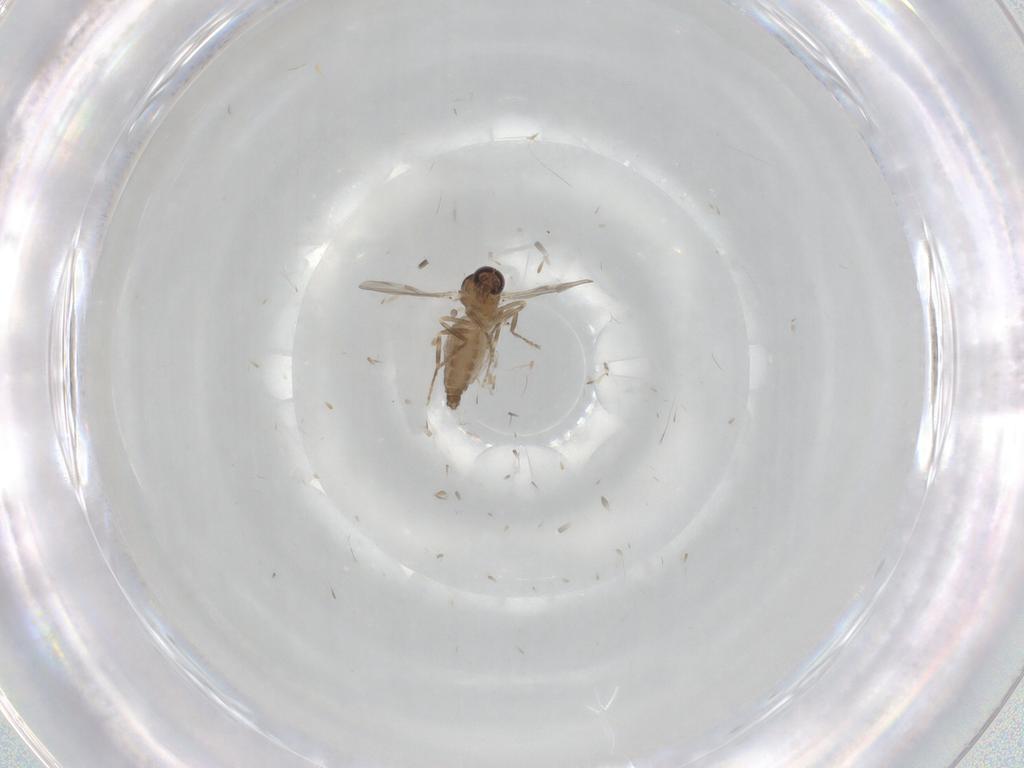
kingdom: Animalia
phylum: Arthropoda
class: Insecta
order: Diptera
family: Ceratopogonidae
